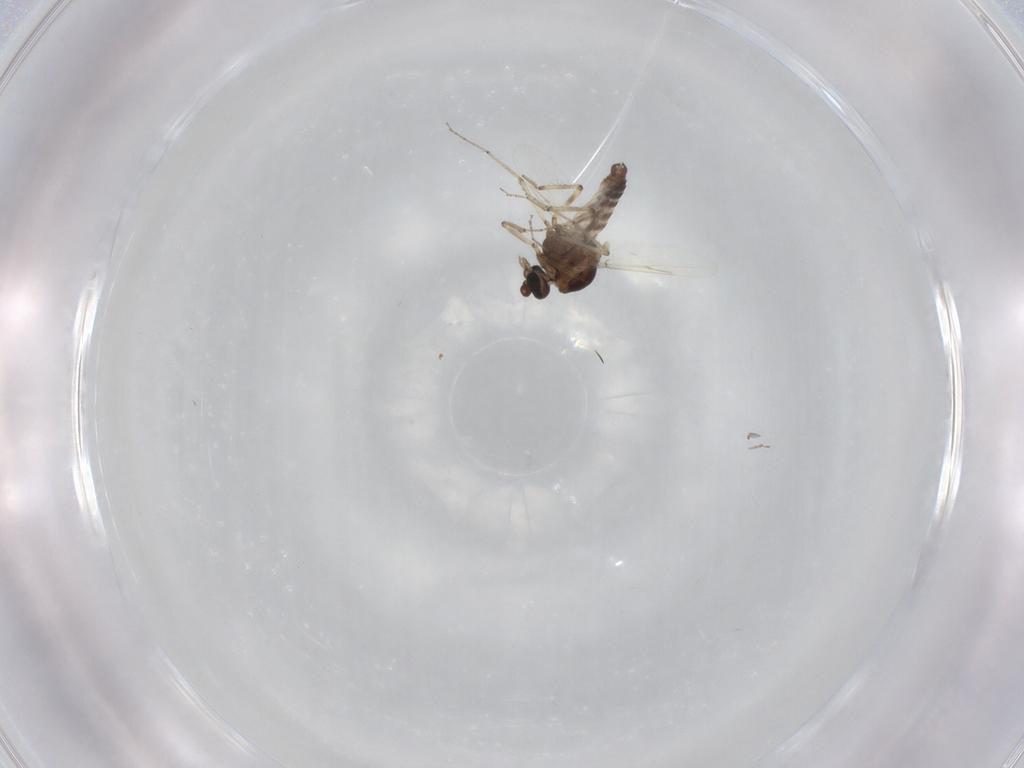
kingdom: Animalia
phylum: Arthropoda
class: Insecta
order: Diptera
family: Ceratopogonidae
